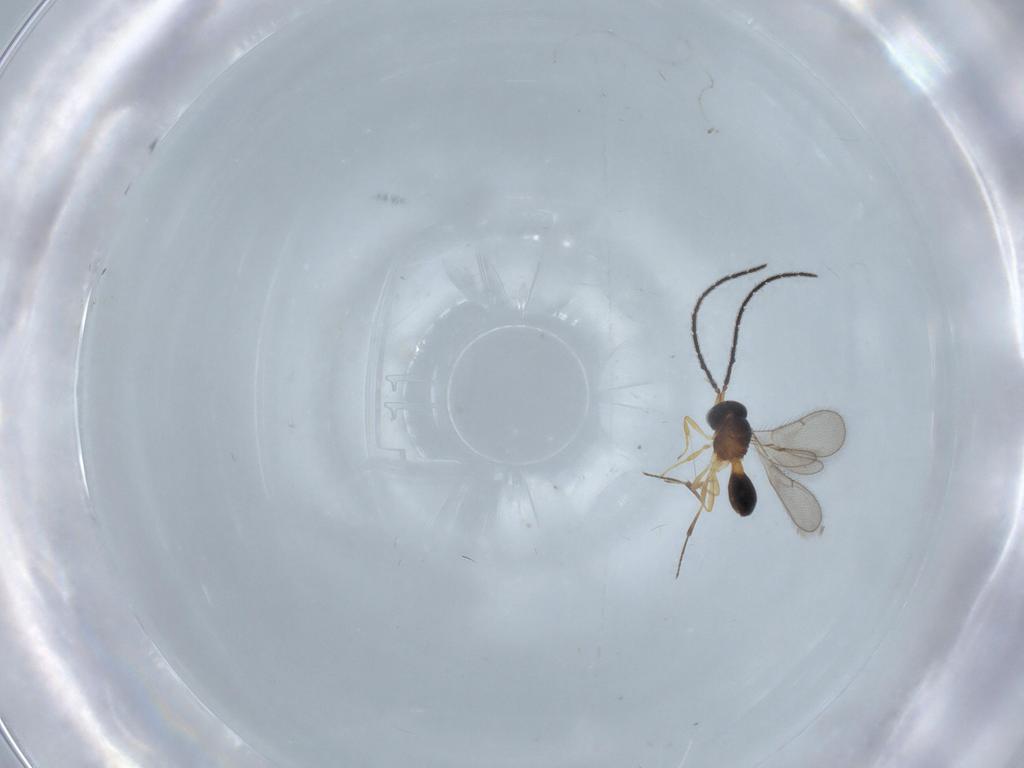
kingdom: Animalia
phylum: Arthropoda
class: Insecta
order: Hymenoptera
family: Scelionidae
